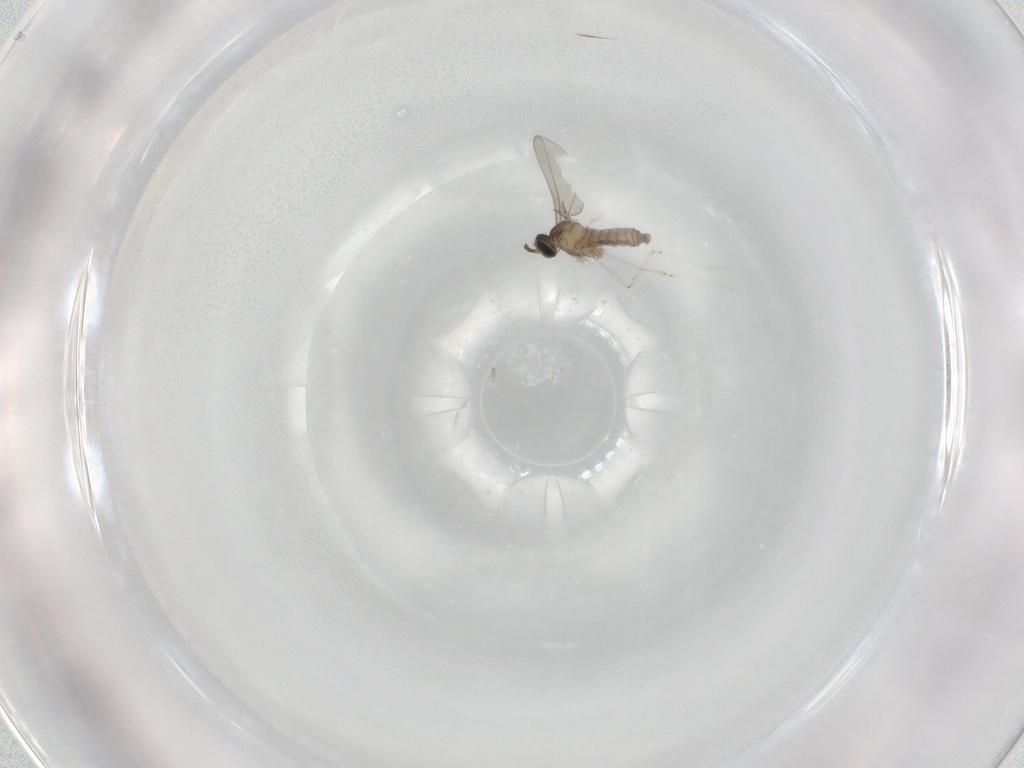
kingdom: Animalia
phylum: Arthropoda
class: Insecta
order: Diptera
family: Cecidomyiidae
